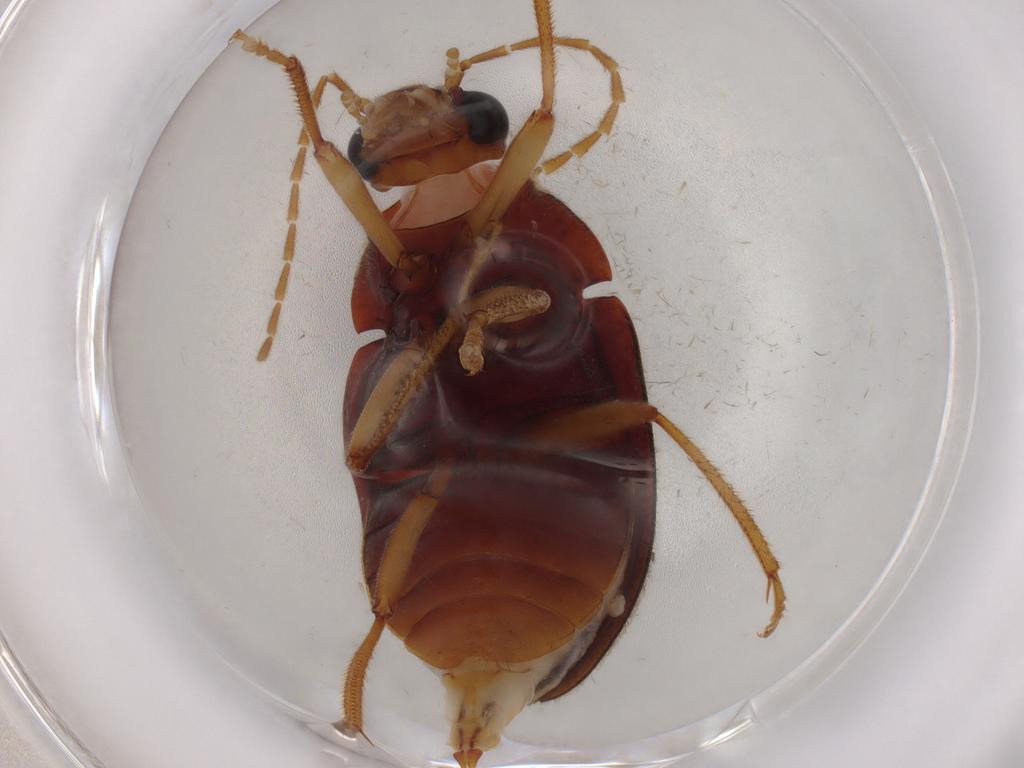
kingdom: Animalia
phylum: Arthropoda
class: Insecta
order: Coleoptera
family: Ptilodactylidae
